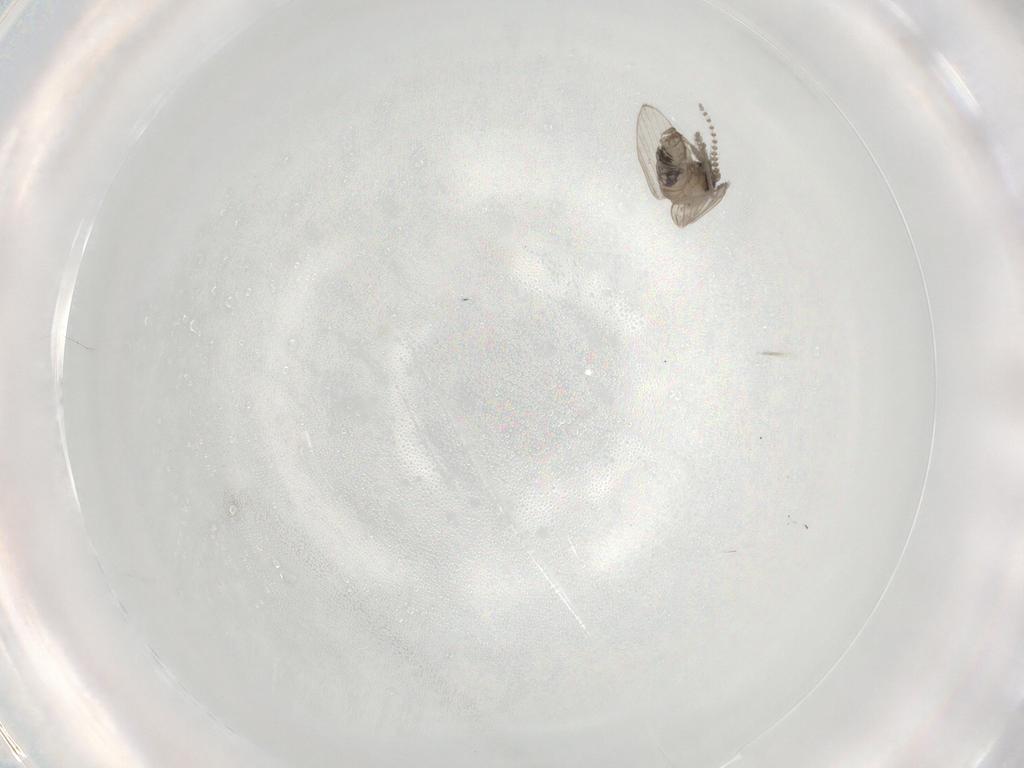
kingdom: Animalia
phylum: Arthropoda
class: Insecta
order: Diptera
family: Psychodidae
